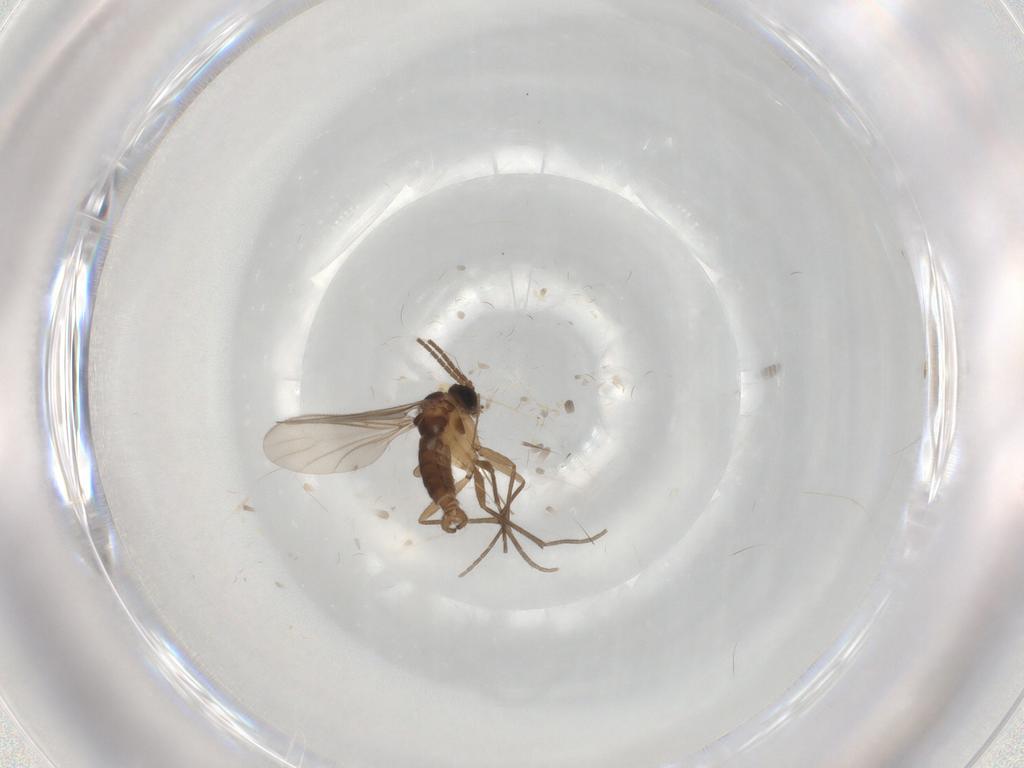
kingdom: Animalia
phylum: Arthropoda
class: Insecta
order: Diptera
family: Sciaridae
